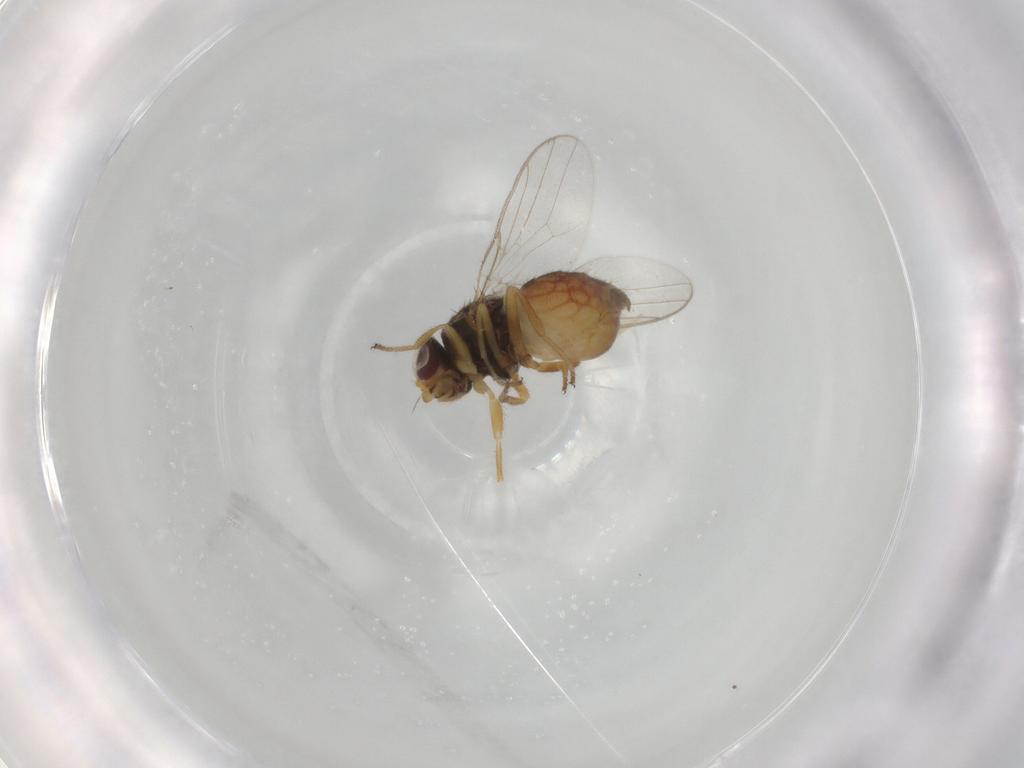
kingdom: Animalia
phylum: Arthropoda
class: Insecta
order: Diptera
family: Chloropidae
